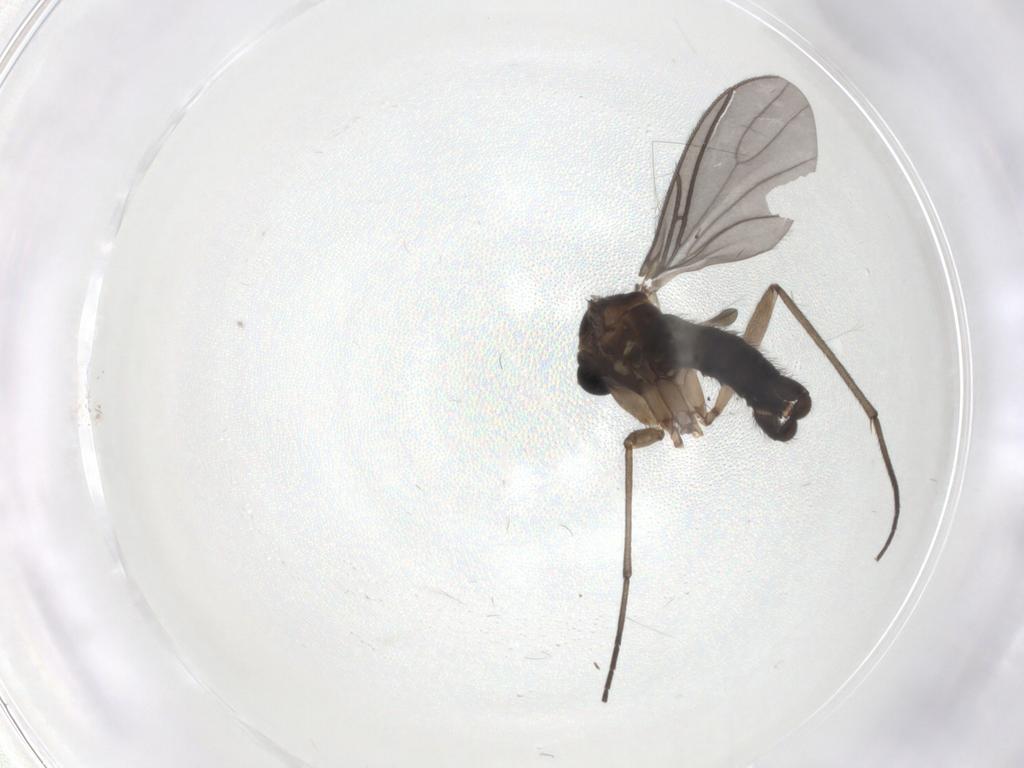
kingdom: Animalia
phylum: Arthropoda
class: Insecta
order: Diptera
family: Sciaridae
